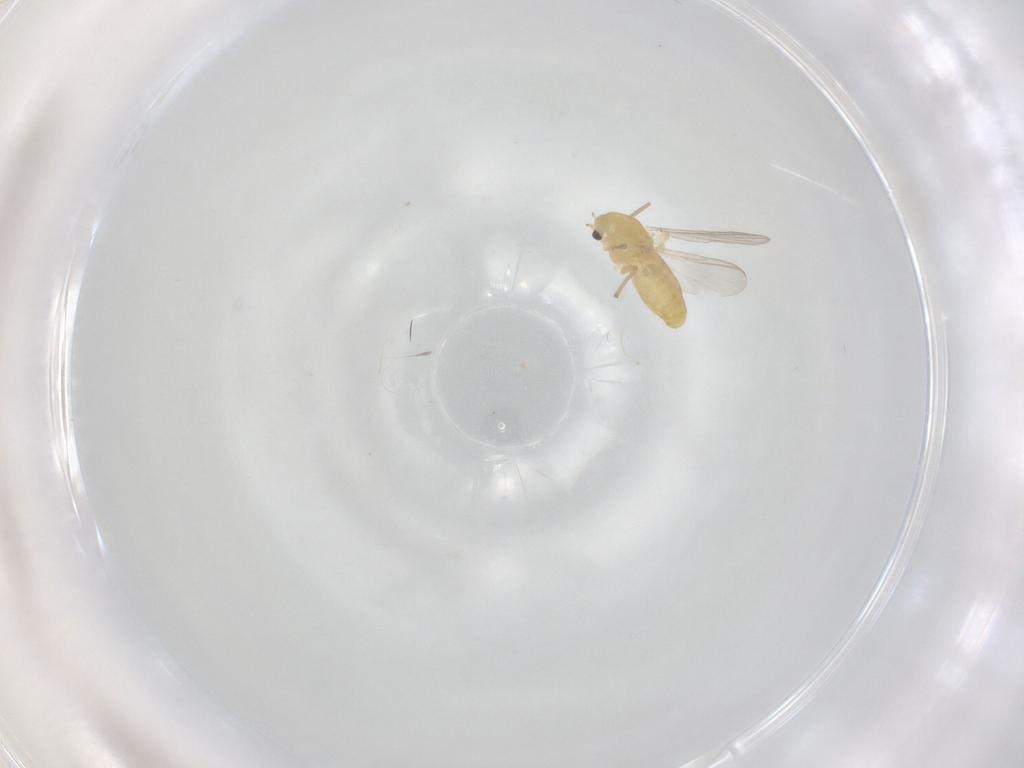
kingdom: Animalia
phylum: Arthropoda
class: Insecta
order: Diptera
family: Chironomidae
